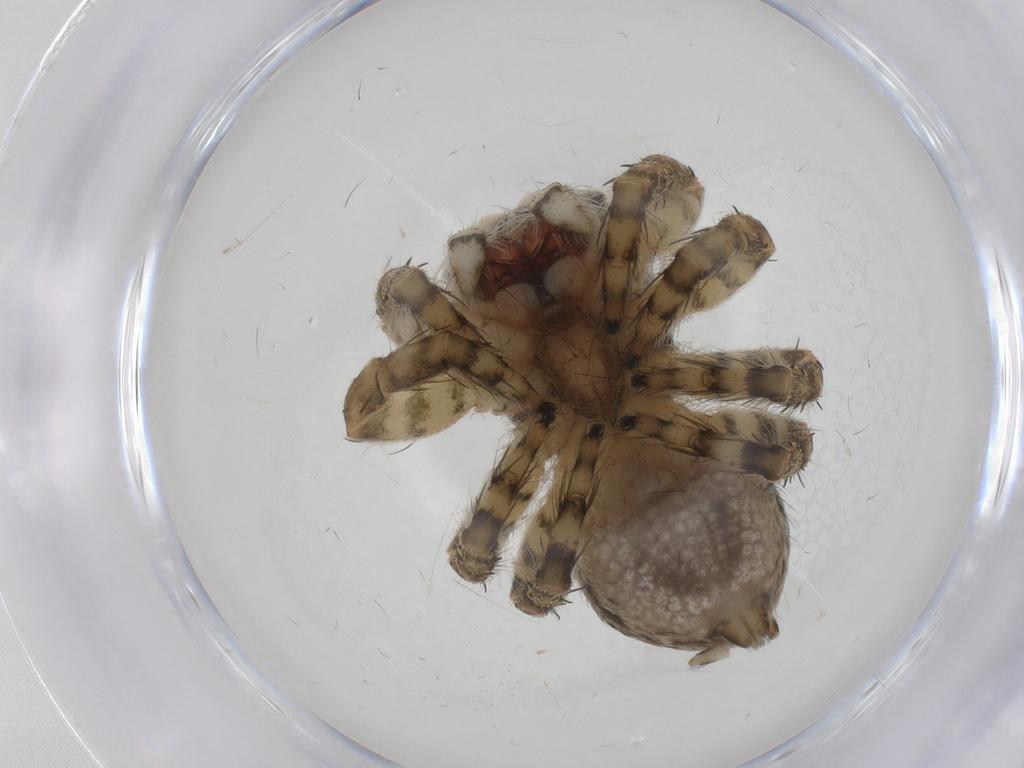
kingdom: Animalia
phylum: Arthropoda
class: Arachnida
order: Araneae
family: Salticidae
